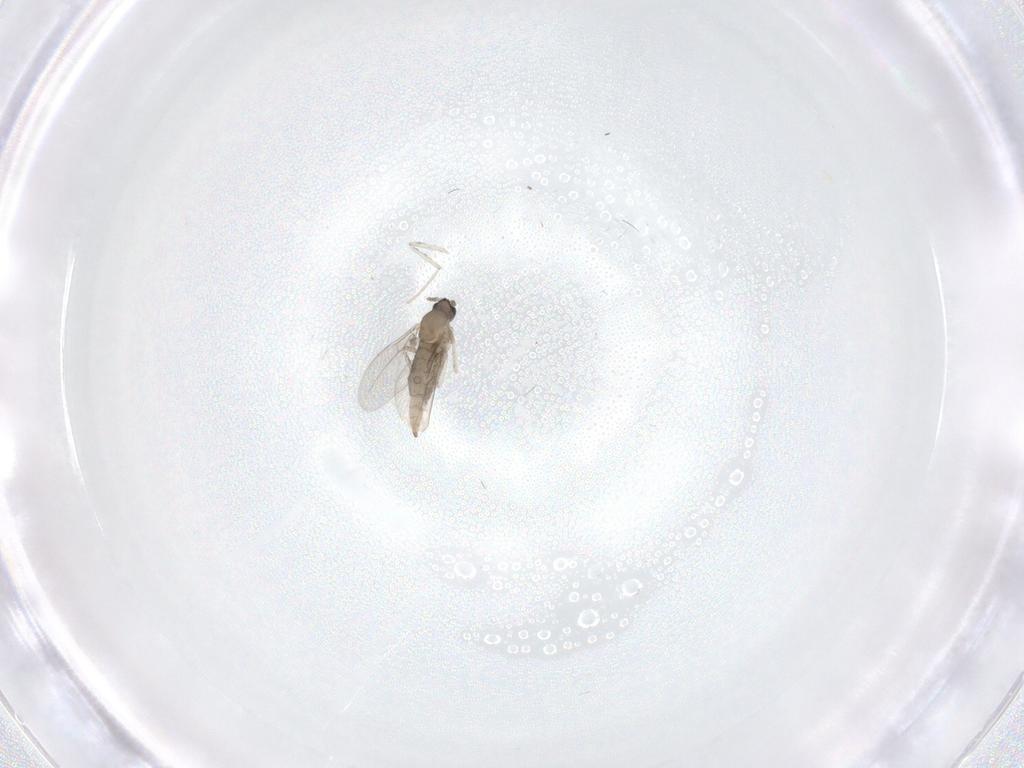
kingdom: Animalia
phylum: Arthropoda
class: Insecta
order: Diptera
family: Cecidomyiidae
